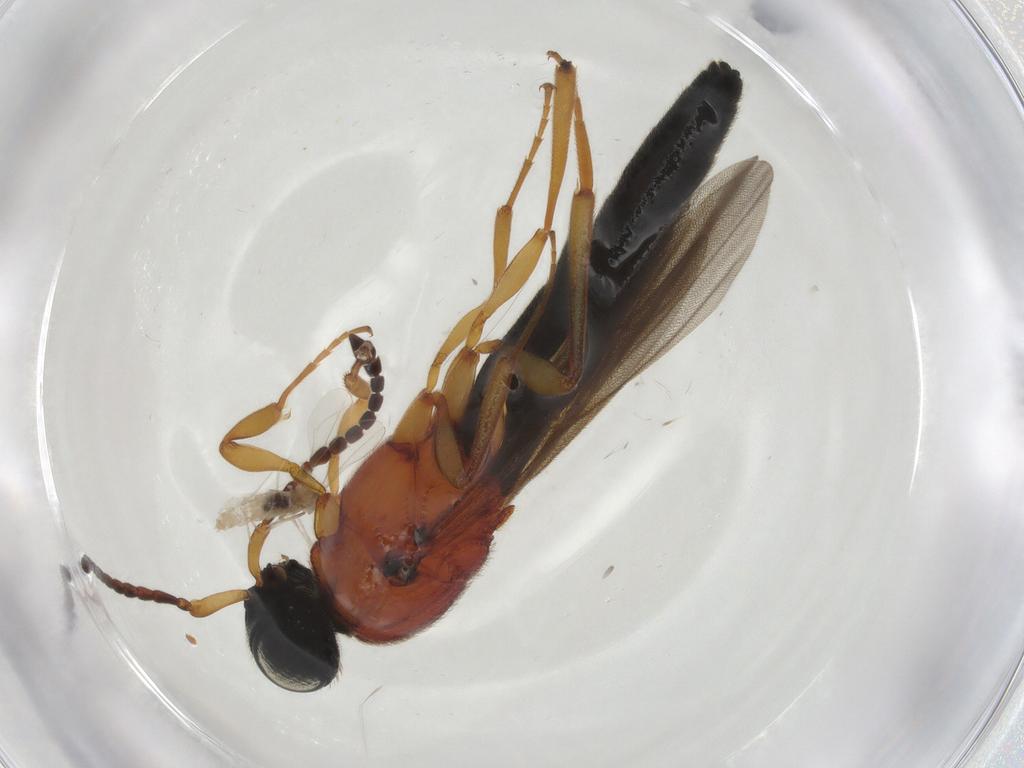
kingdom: Animalia
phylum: Arthropoda
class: Insecta
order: Diptera
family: Cecidomyiidae
